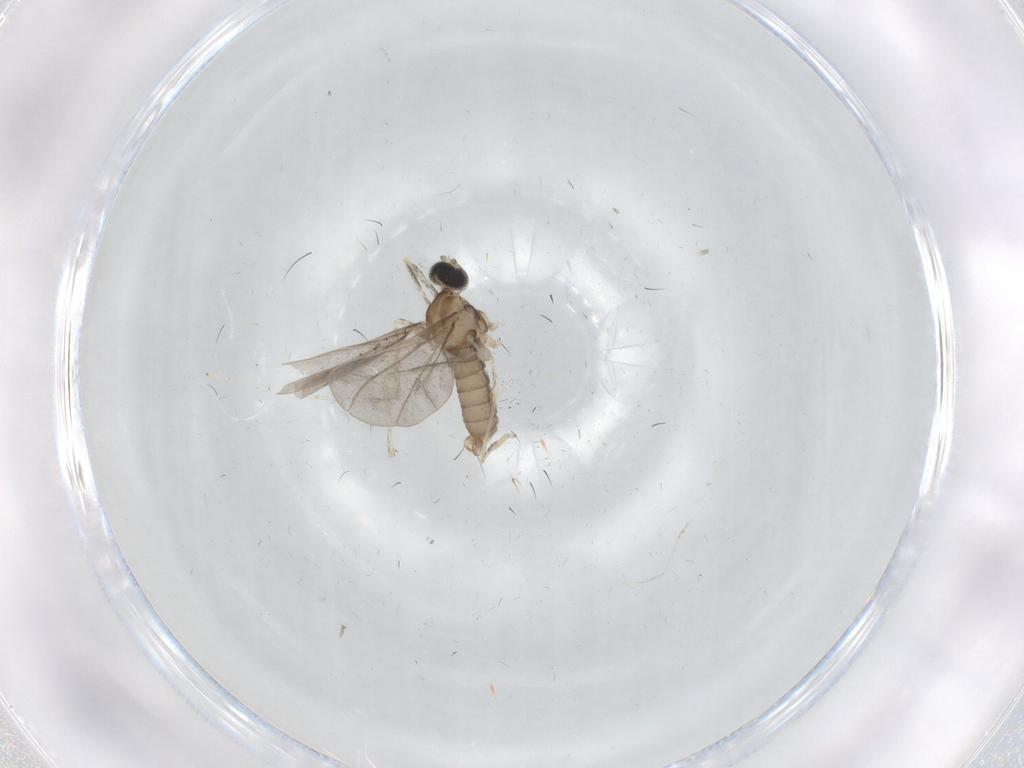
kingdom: Animalia
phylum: Arthropoda
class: Insecta
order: Diptera
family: Cecidomyiidae
